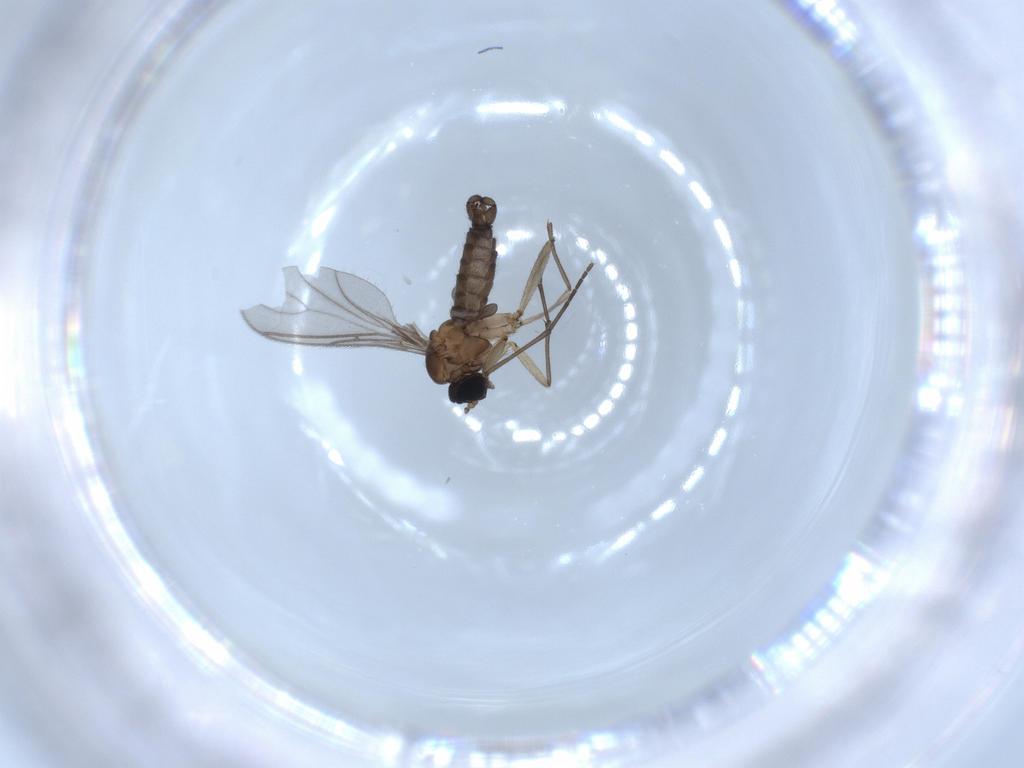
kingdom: Animalia
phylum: Arthropoda
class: Insecta
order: Diptera
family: Sciaridae
